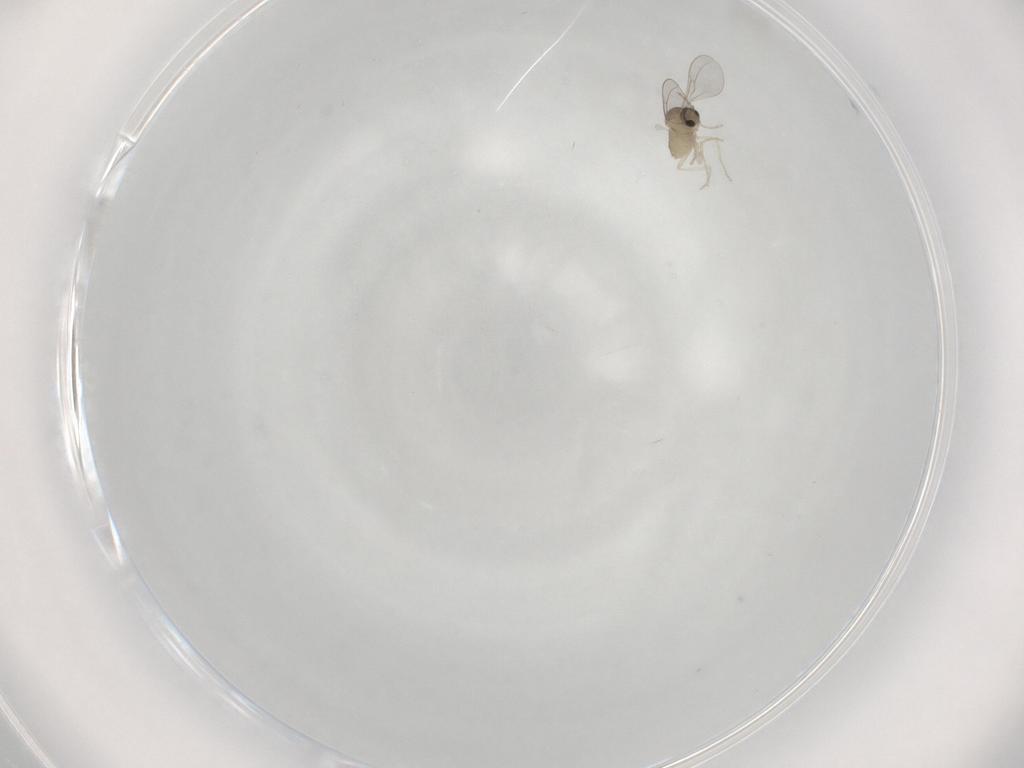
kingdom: Animalia
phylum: Arthropoda
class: Insecta
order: Diptera
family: Cecidomyiidae
